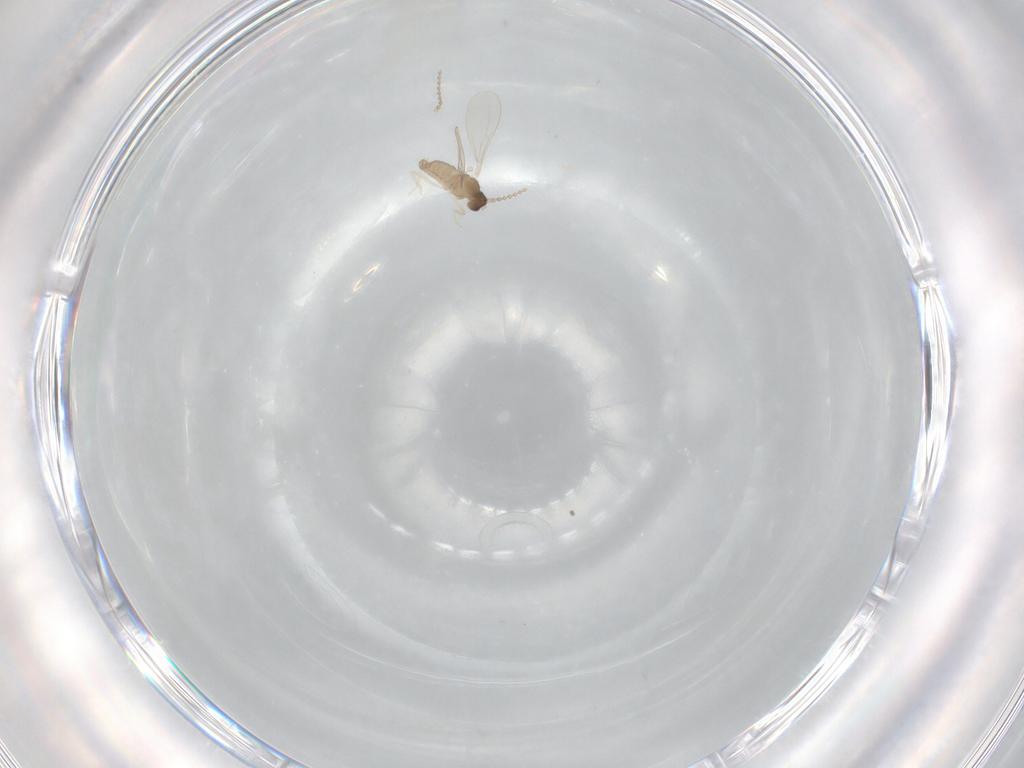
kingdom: Animalia
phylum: Arthropoda
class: Insecta
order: Diptera
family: Cecidomyiidae
